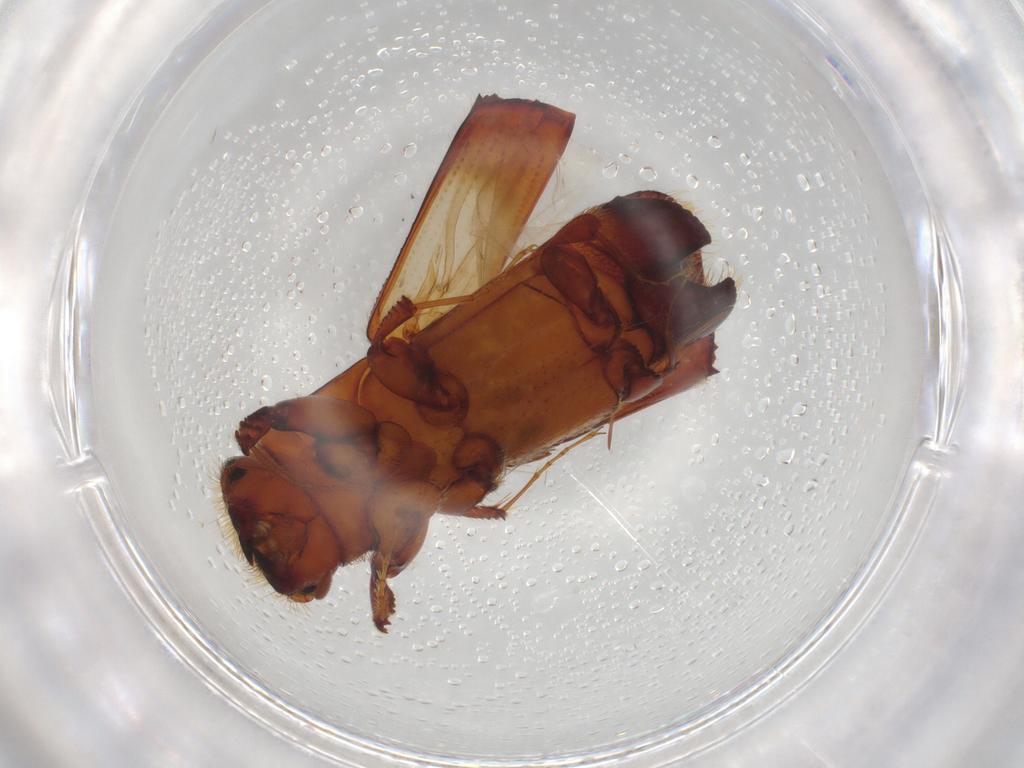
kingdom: Animalia
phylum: Arthropoda
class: Insecta
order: Coleoptera
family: Curculionidae
